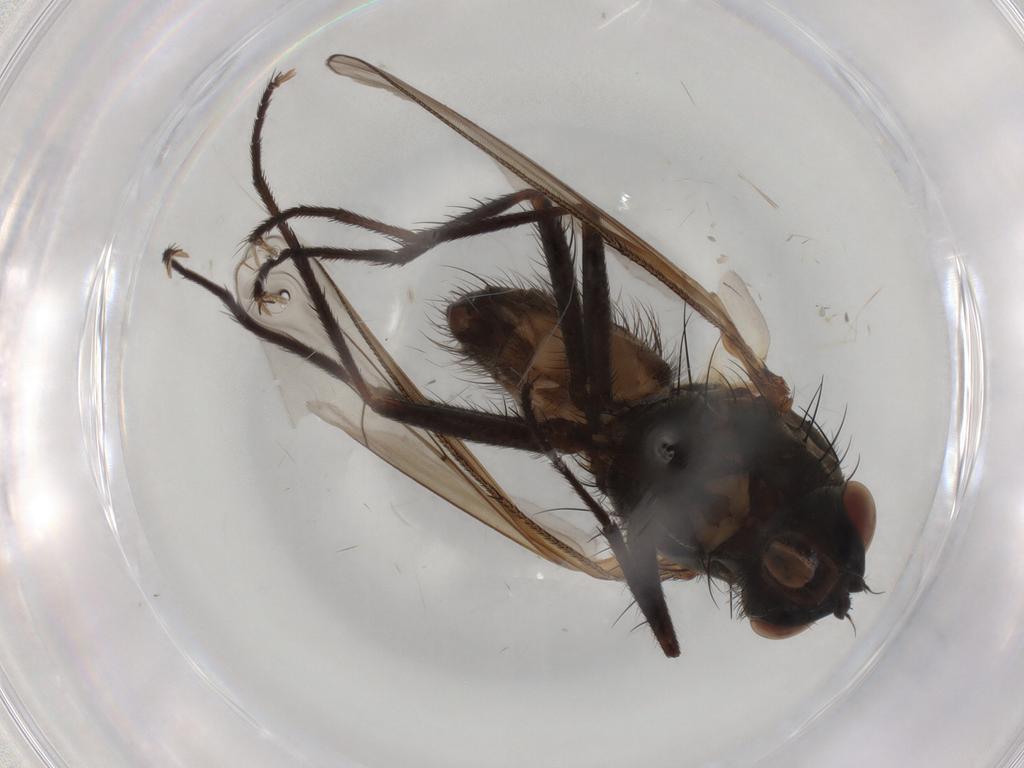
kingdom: Animalia
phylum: Arthropoda
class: Insecta
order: Diptera
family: Anthomyiidae
